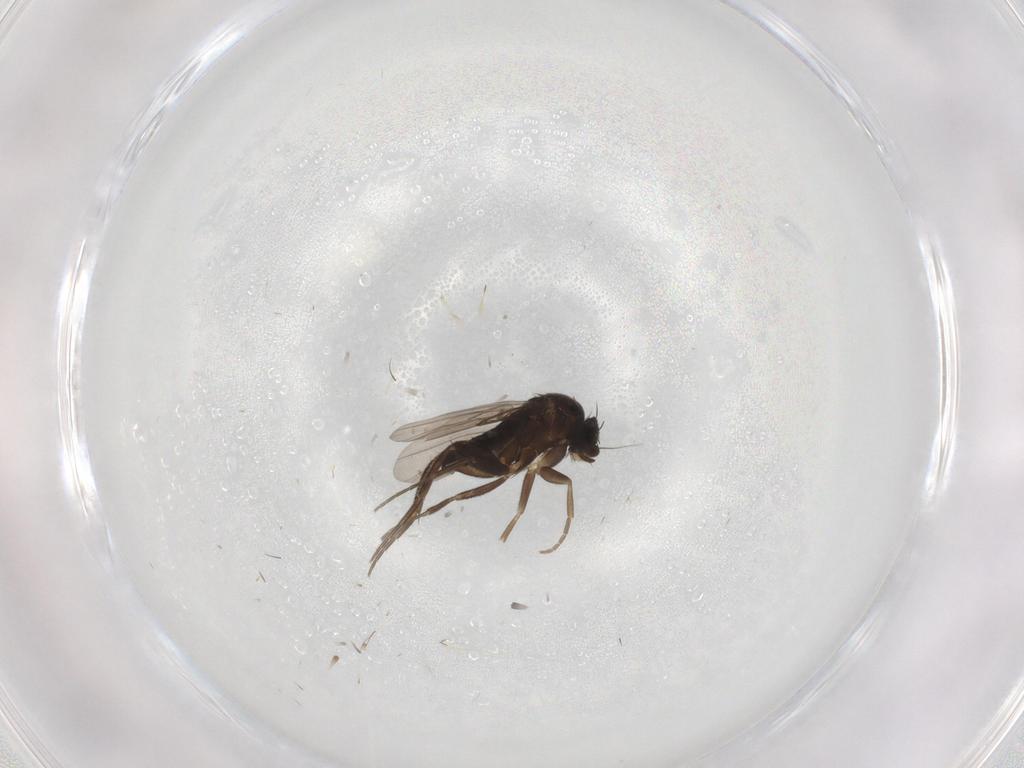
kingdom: Animalia
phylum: Arthropoda
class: Insecta
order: Diptera
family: Phoridae
